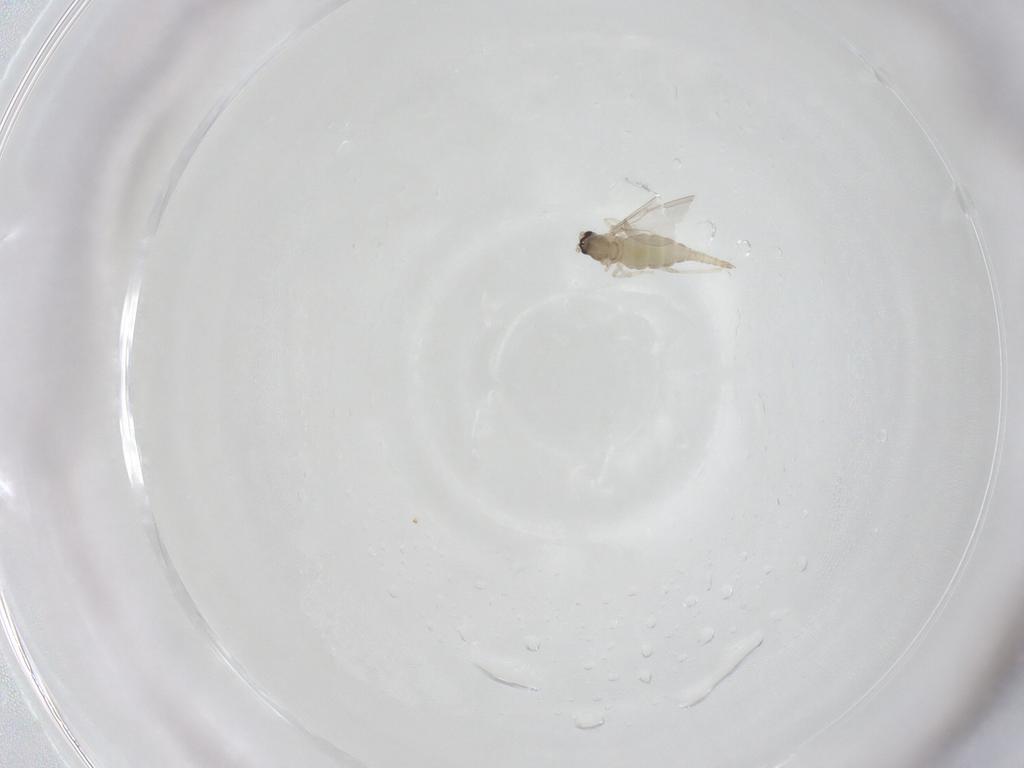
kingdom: Animalia
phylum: Arthropoda
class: Insecta
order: Diptera
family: Cecidomyiidae
